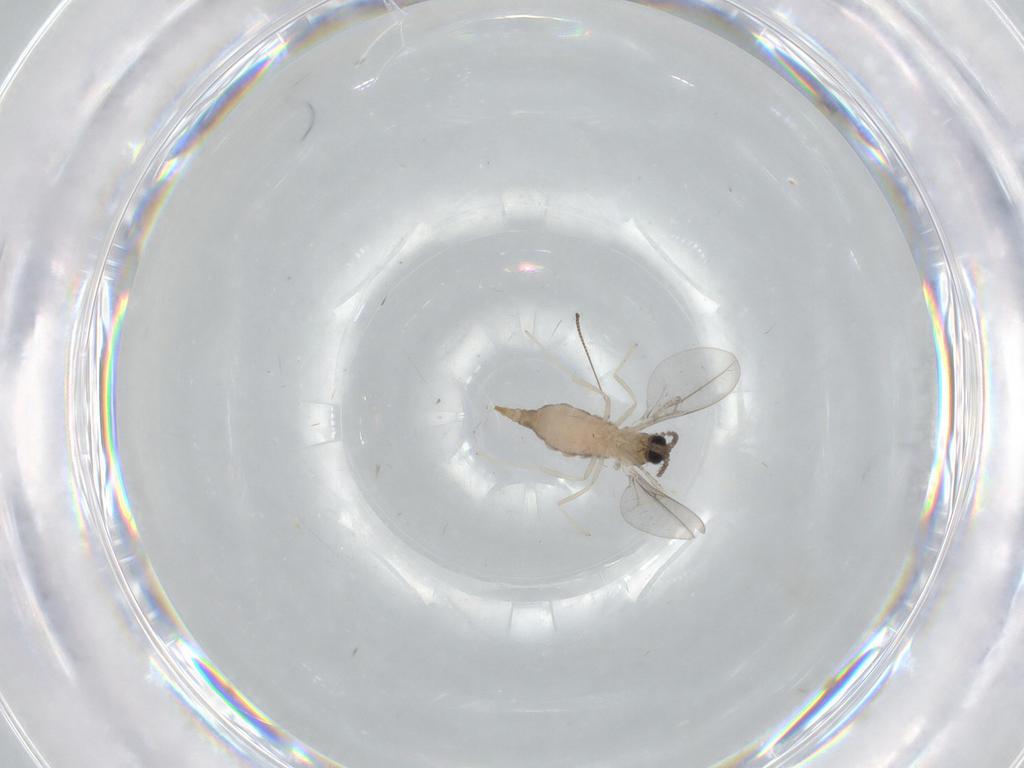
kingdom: Animalia
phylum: Arthropoda
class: Insecta
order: Diptera
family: Chironomidae
